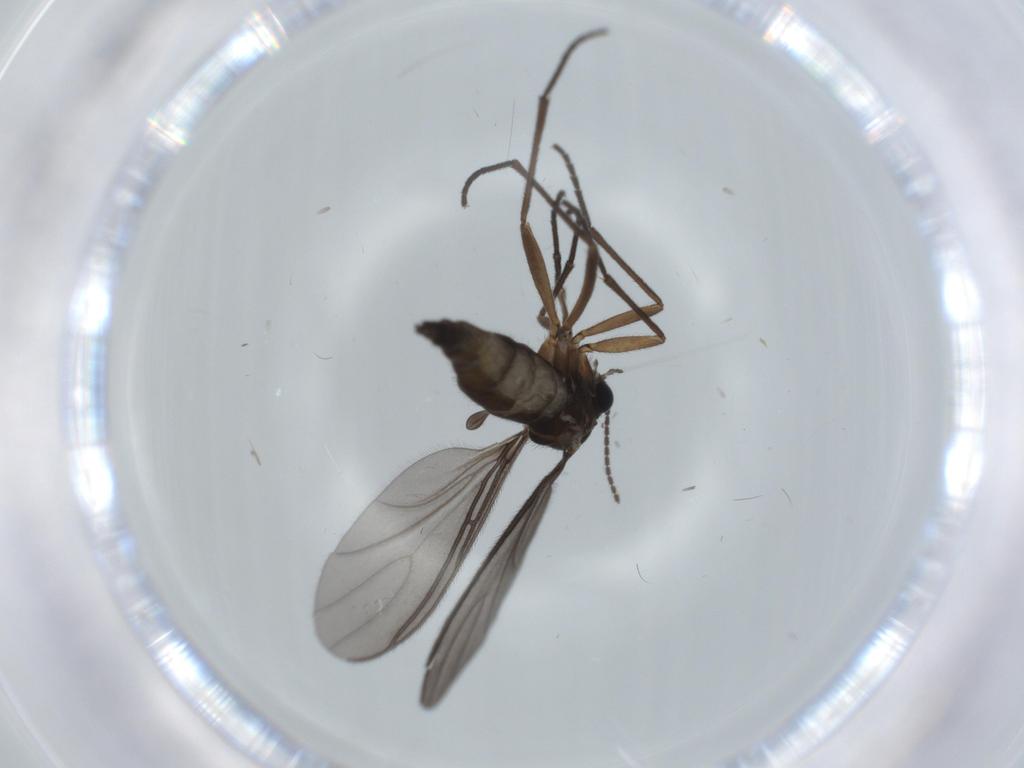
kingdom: Animalia
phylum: Arthropoda
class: Insecta
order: Diptera
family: Sciaridae
